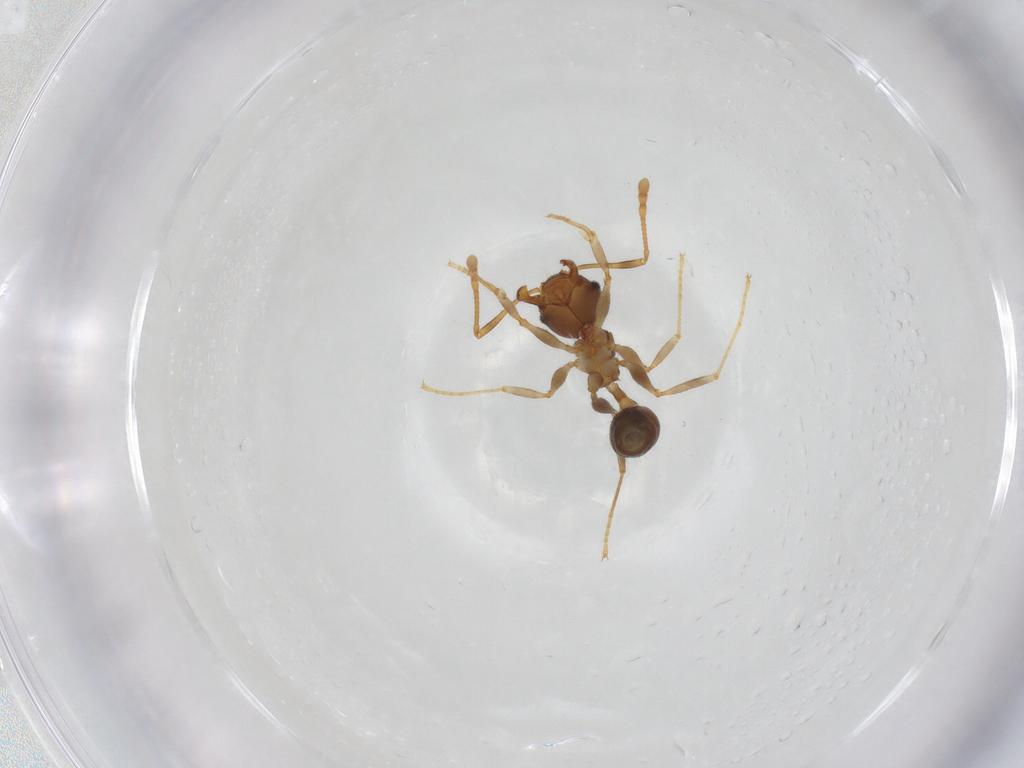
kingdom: Animalia
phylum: Arthropoda
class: Insecta
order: Hymenoptera
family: Formicidae
